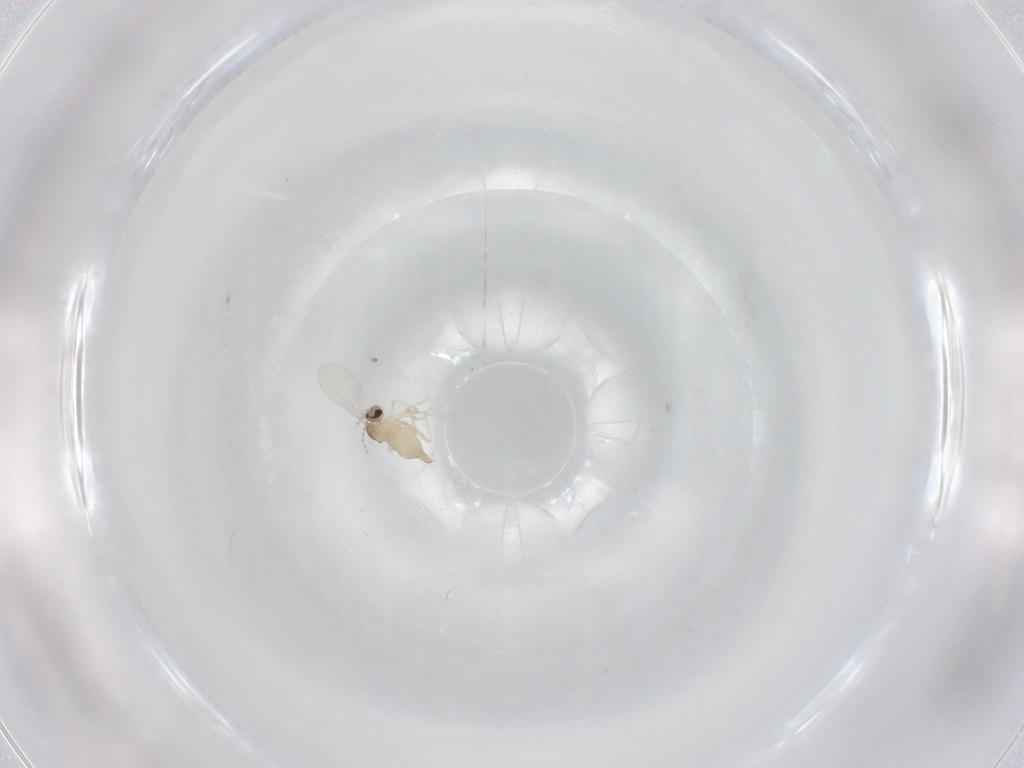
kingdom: Animalia
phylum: Arthropoda
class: Insecta
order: Diptera
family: Cecidomyiidae
